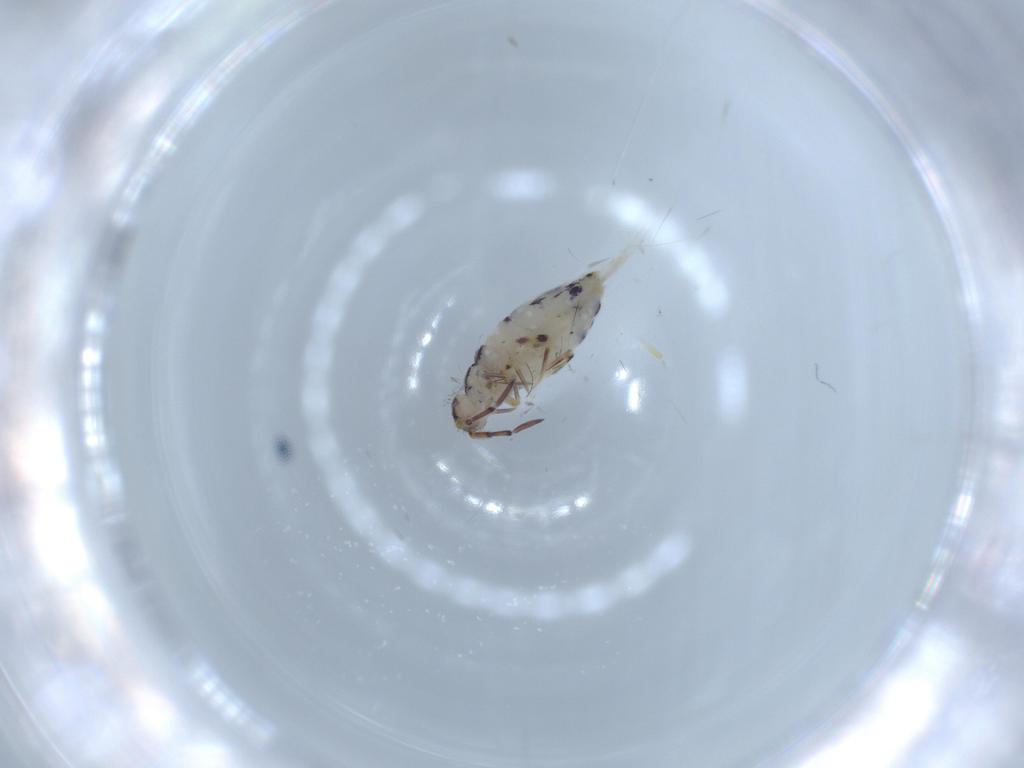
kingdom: Animalia
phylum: Arthropoda
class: Collembola
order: Entomobryomorpha
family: Entomobryidae
